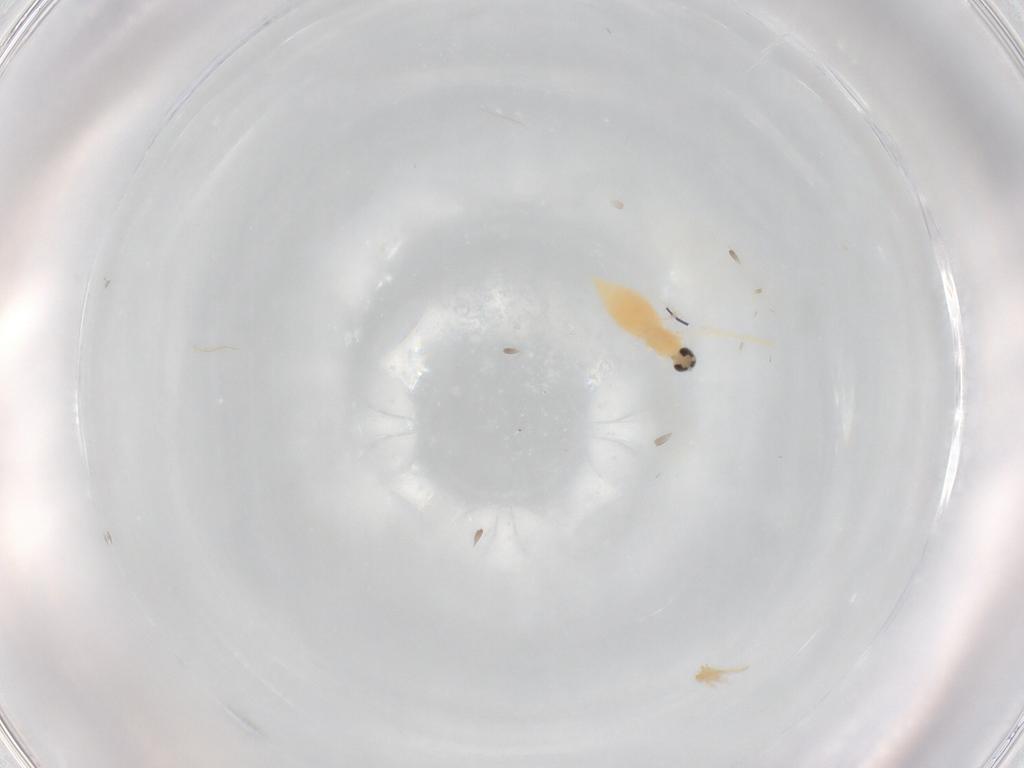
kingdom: Animalia
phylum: Arthropoda
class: Insecta
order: Diptera
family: Cecidomyiidae
